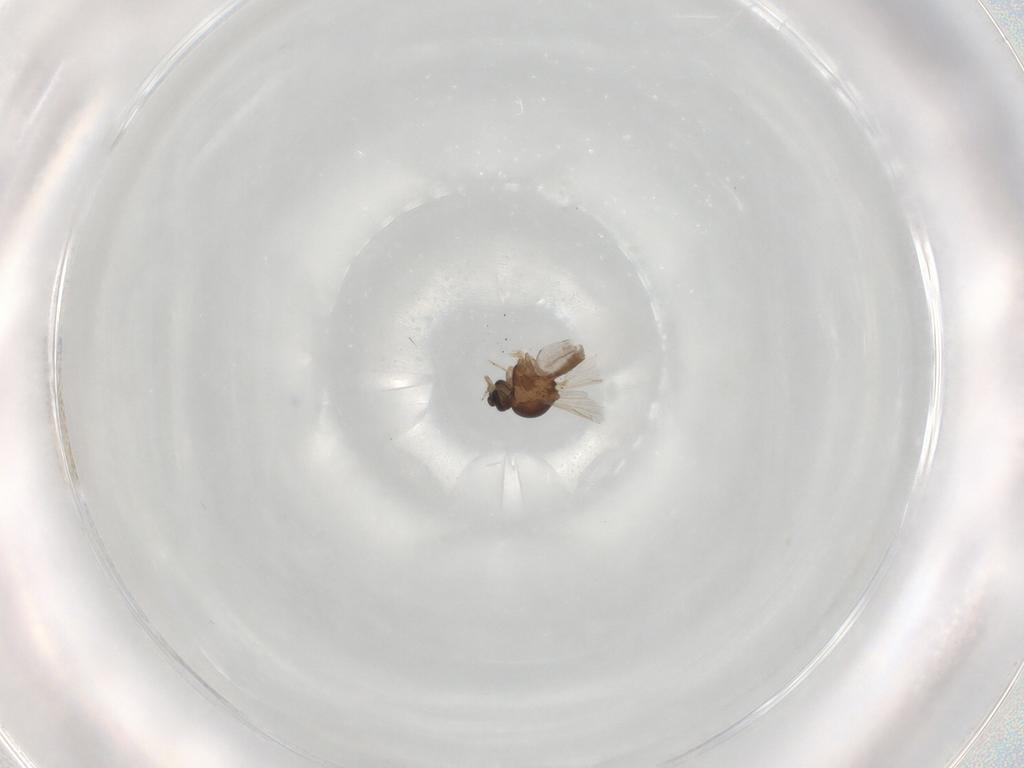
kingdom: Animalia
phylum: Arthropoda
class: Insecta
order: Diptera
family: Ceratopogonidae
